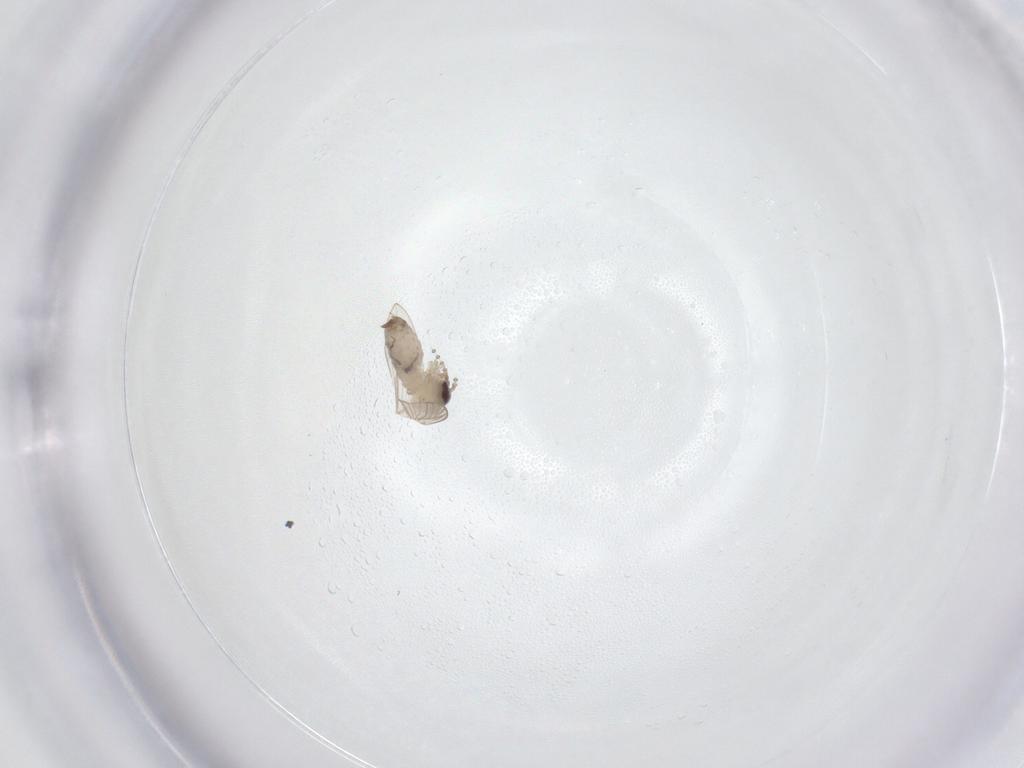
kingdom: Animalia
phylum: Arthropoda
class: Insecta
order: Diptera
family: Psychodidae
